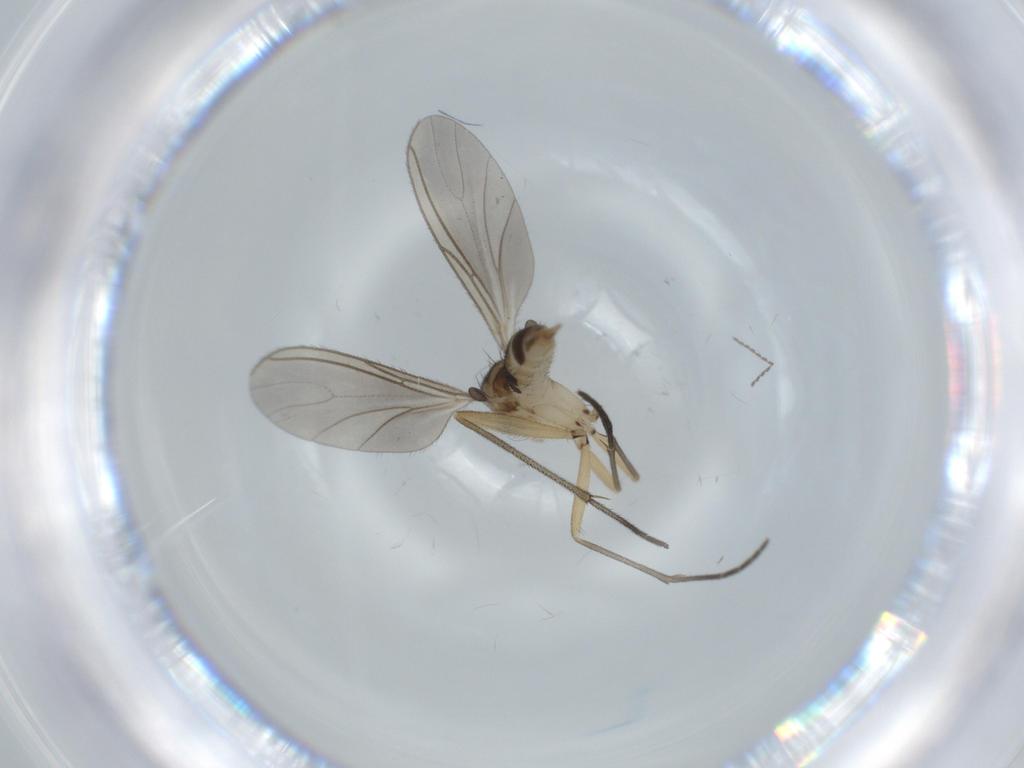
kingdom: Animalia
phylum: Arthropoda
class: Insecta
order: Diptera
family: Sciaridae
